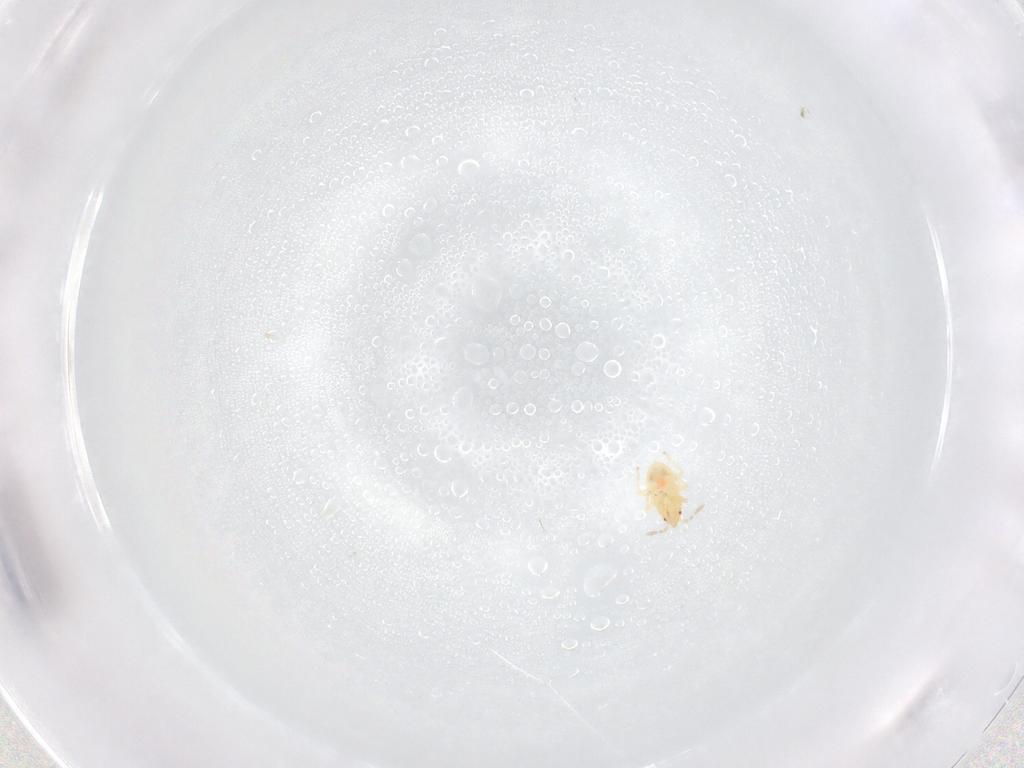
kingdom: Animalia
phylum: Arthropoda
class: Insecta
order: Hemiptera
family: Anthocoridae
